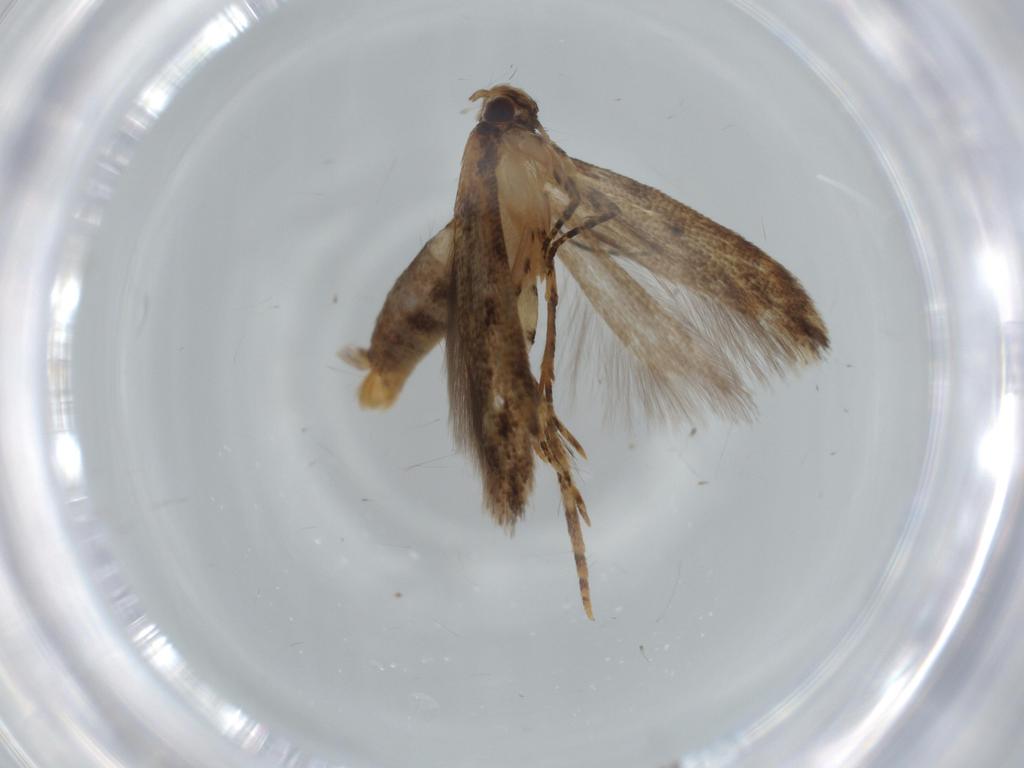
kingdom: Animalia
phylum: Arthropoda
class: Insecta
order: Lepidoptera
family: Gelechiidae
